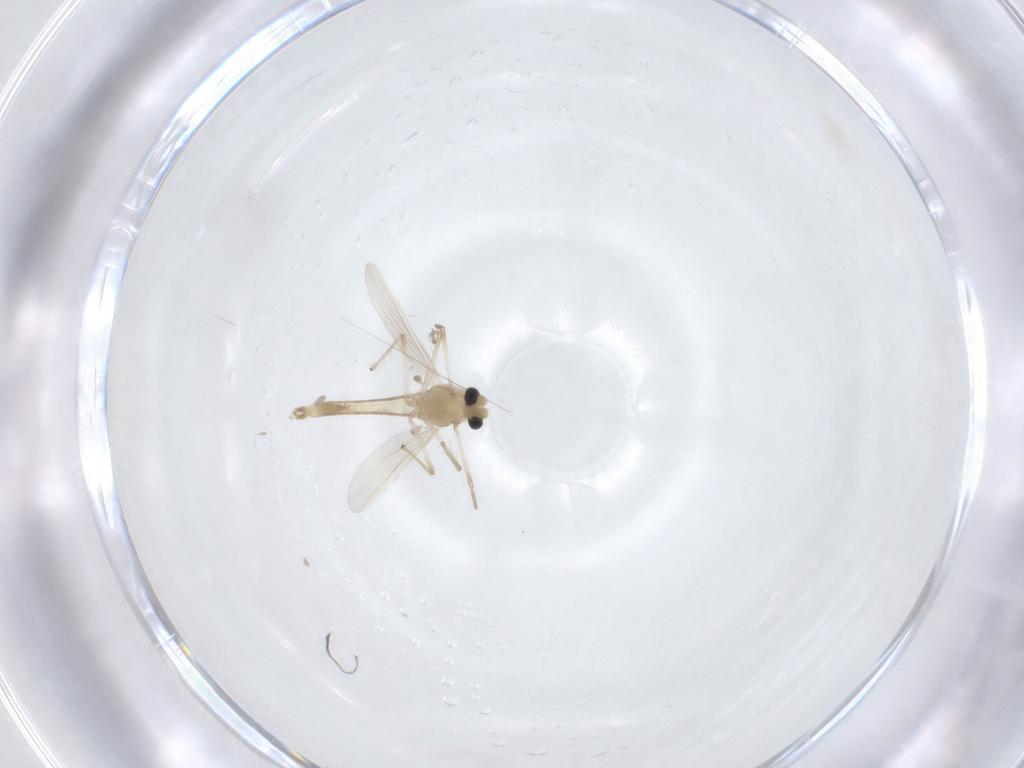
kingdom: Animalia
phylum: Arthropoda
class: Insecta
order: Diptera
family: Chironomidae
